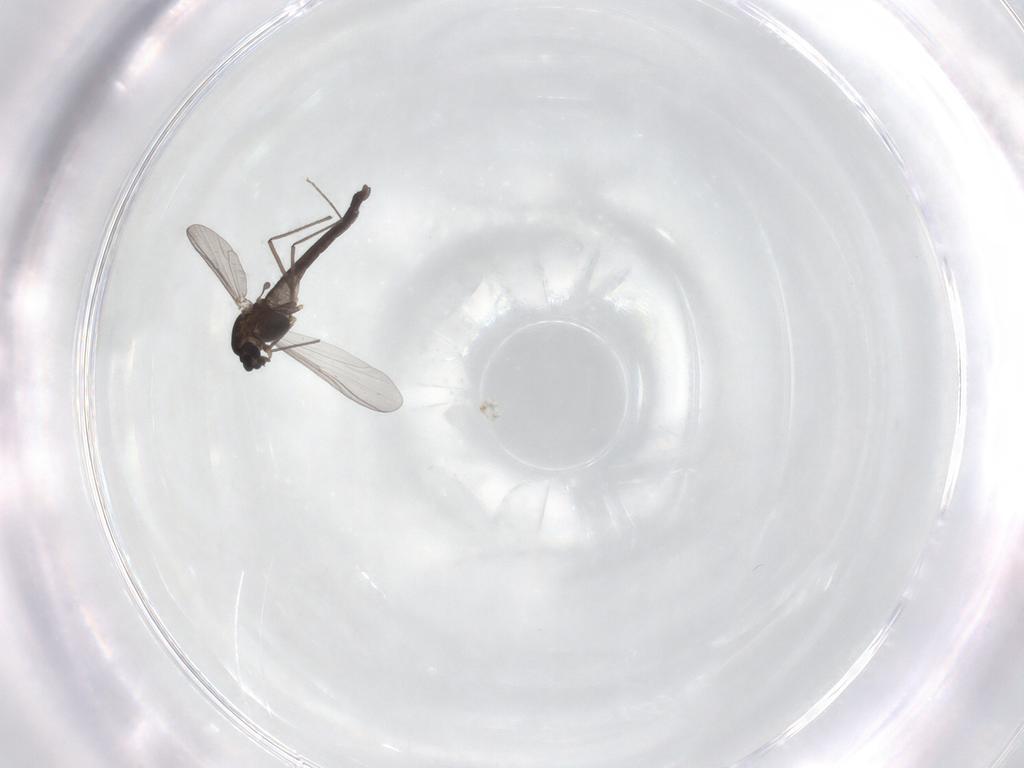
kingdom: Animalia
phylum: Arthropoda
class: Insecta
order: Diptera
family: Chironomidae
